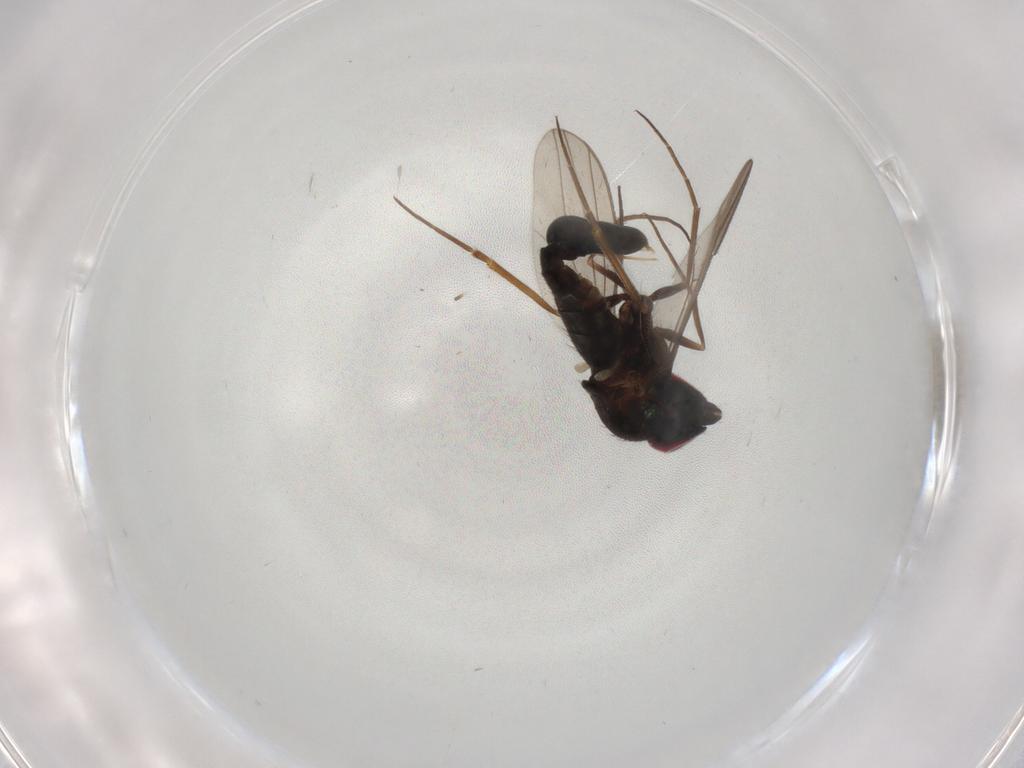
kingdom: Animalia
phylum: Arthropoda
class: Insecta
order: Diptera
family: Dolichopodidae
